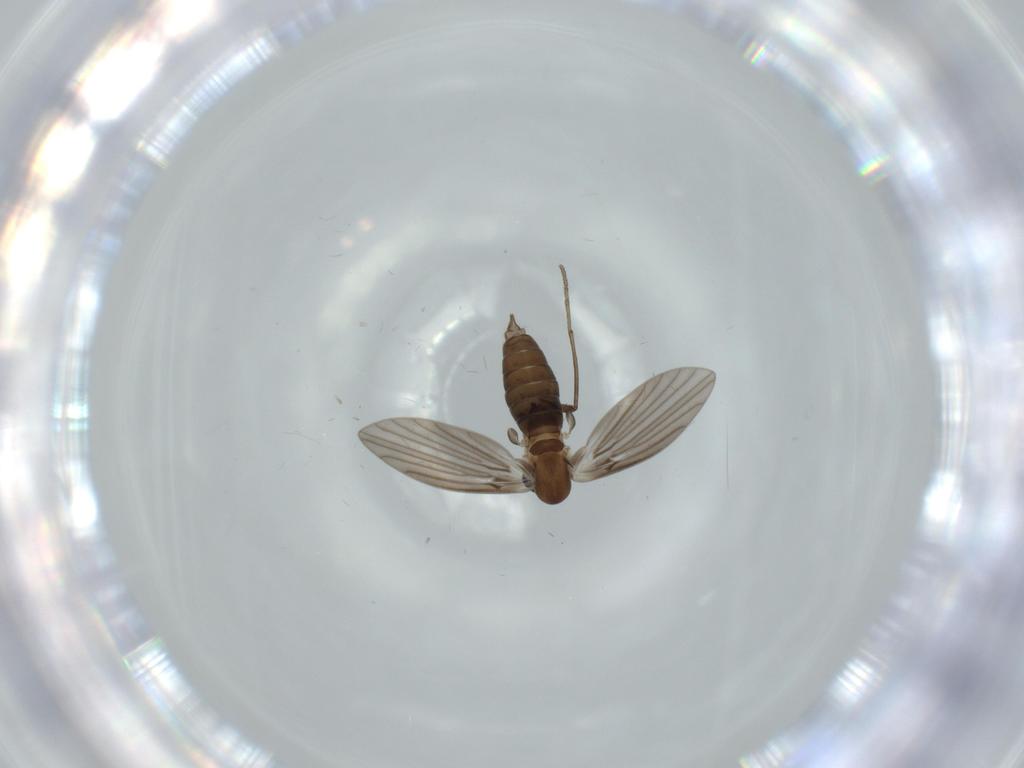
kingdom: Animalia
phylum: Arthropoda
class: Insecta
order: Diptera
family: Psychodidae
